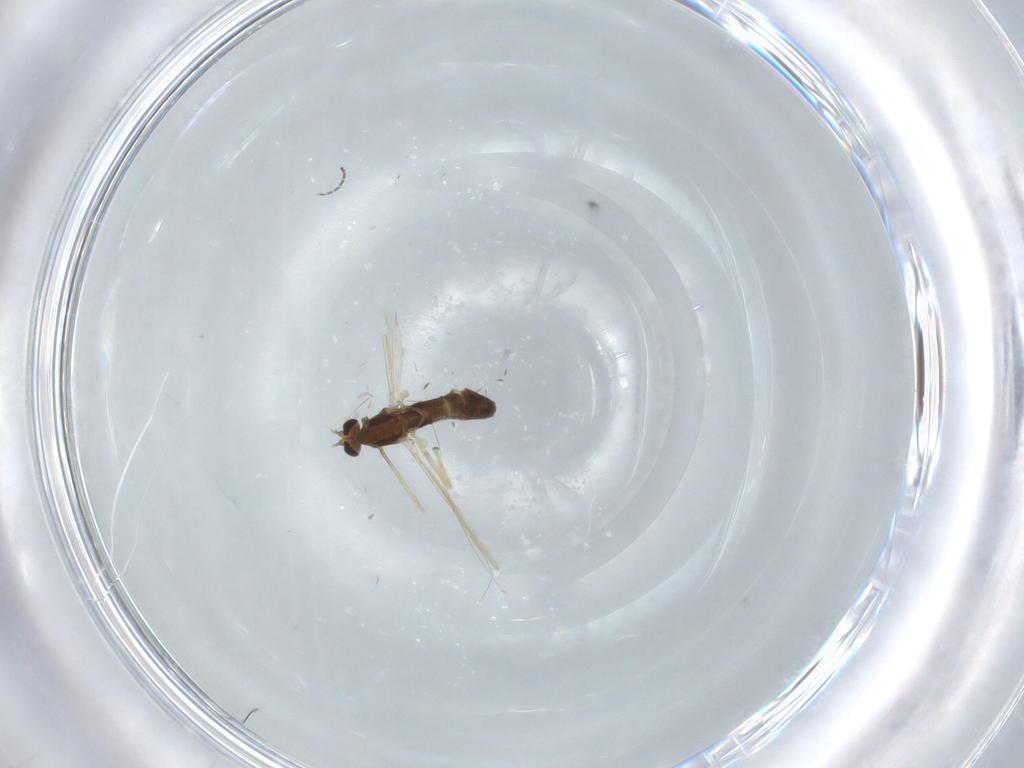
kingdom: Animalia
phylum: Arthropoda
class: Insecta
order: Diptera
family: Chironomidae
